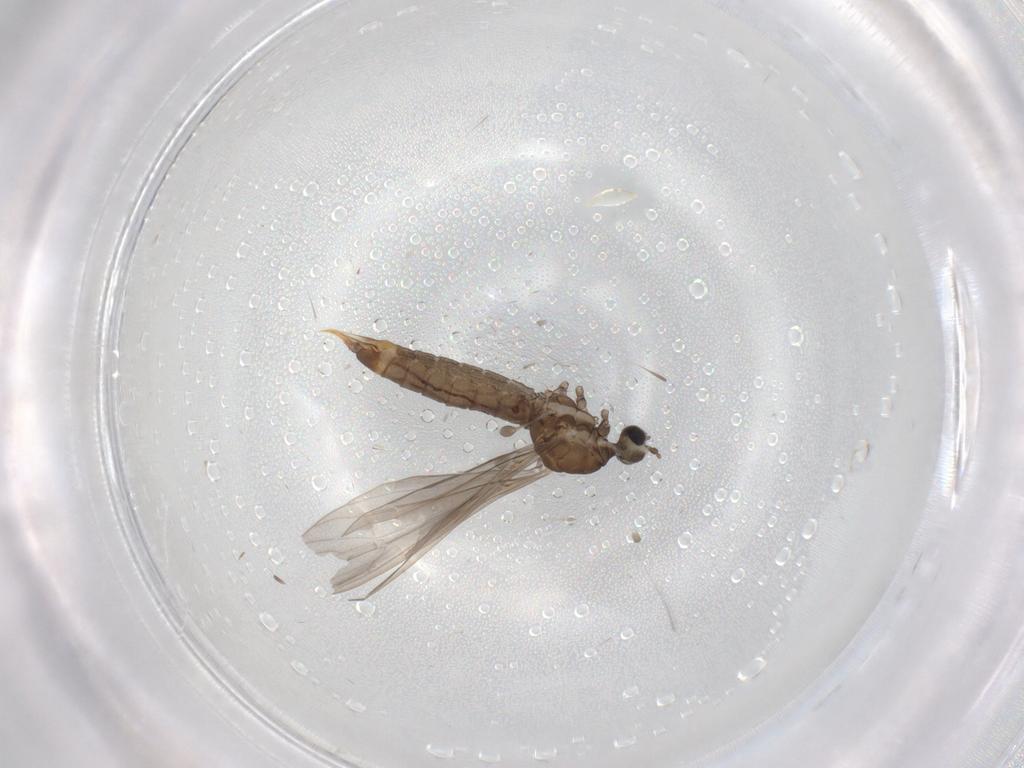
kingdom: Animalia
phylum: Arthropoda
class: Insecta
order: Diptera
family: Limoniidae
